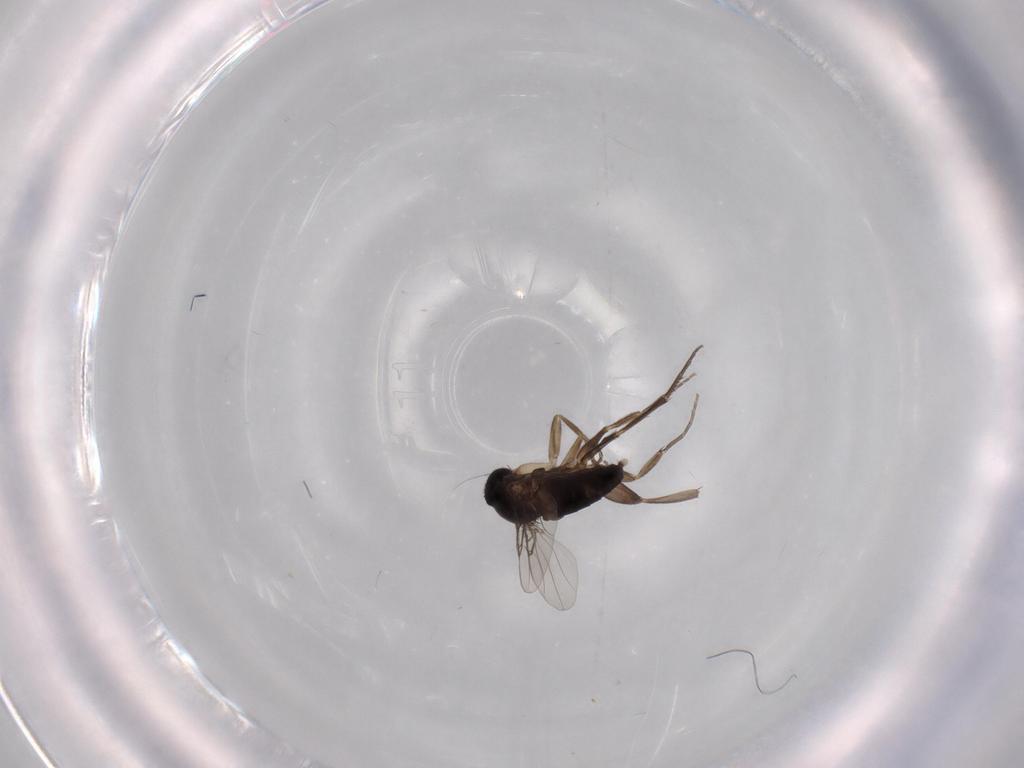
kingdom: Animalia
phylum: Arthropoda
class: Insecta
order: Diptera
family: Phoridae
